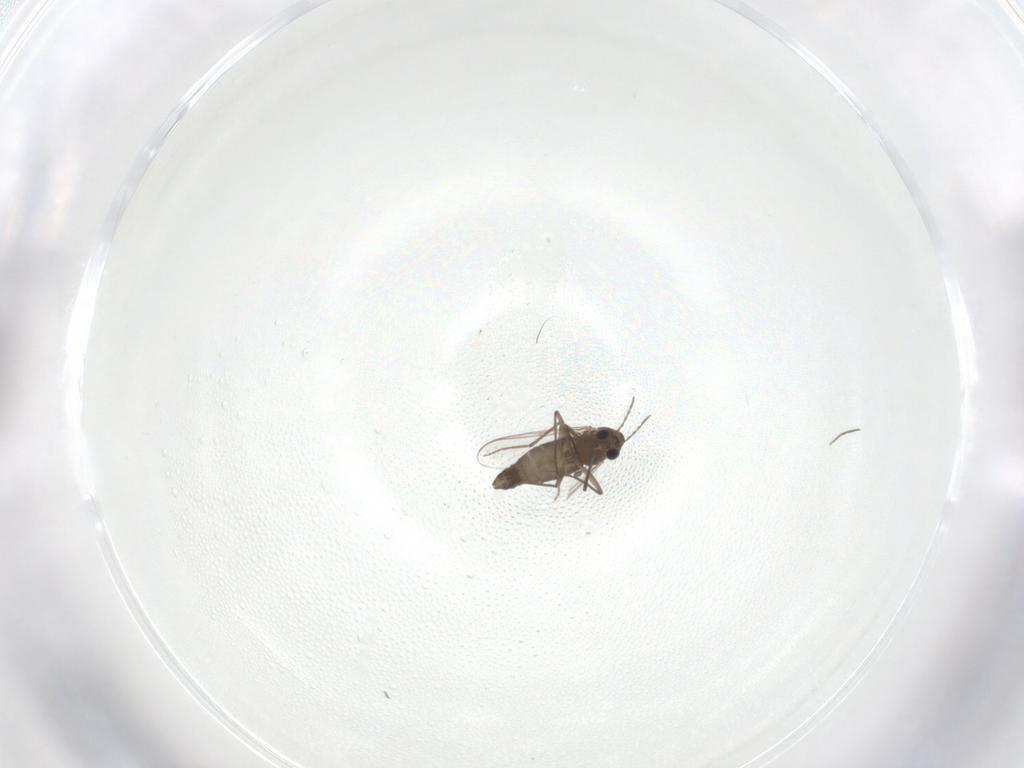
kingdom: Animalia
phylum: Arthropoda
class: Insecta
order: Diptera
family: Chironomidae
